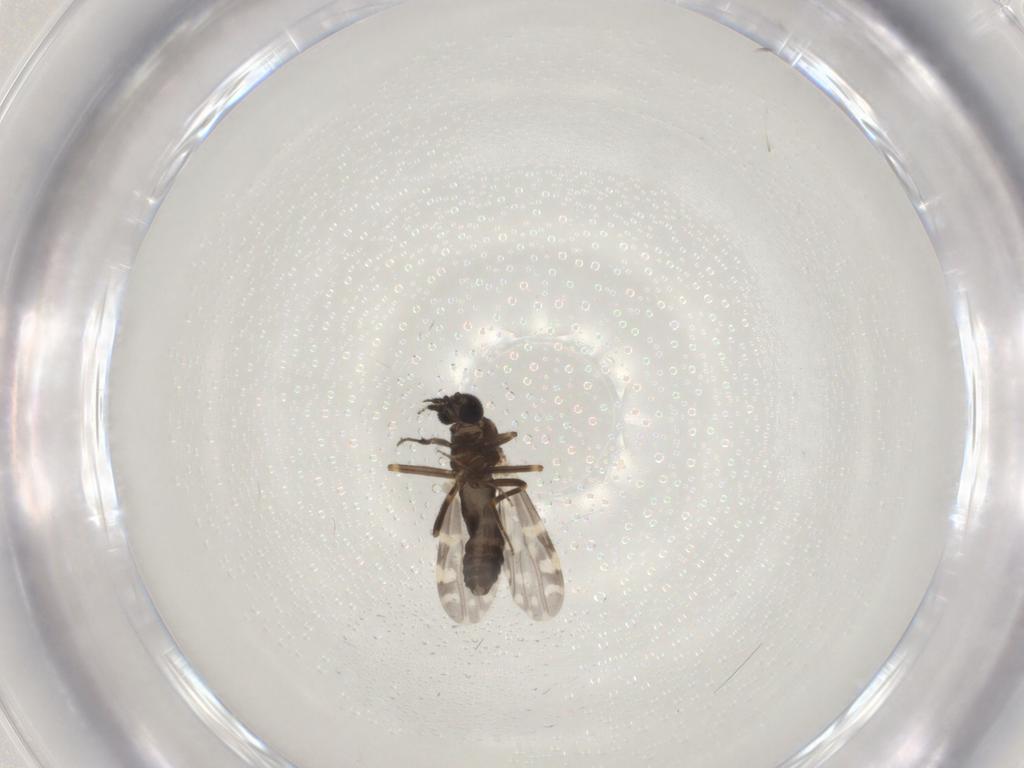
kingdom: Animalia
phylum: Arthropoda
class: Insecta
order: Diptera
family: Ceratopogonidae
